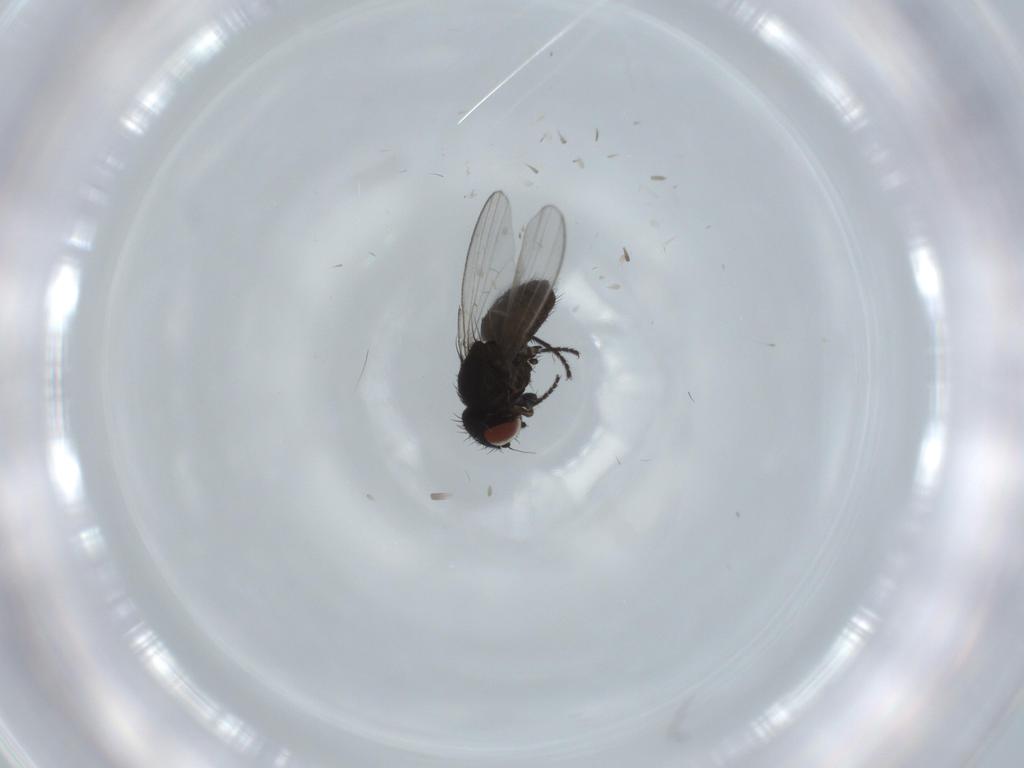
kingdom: Animalia
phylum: Arthropoda
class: Insecta
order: Diptera
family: Milichiidae
